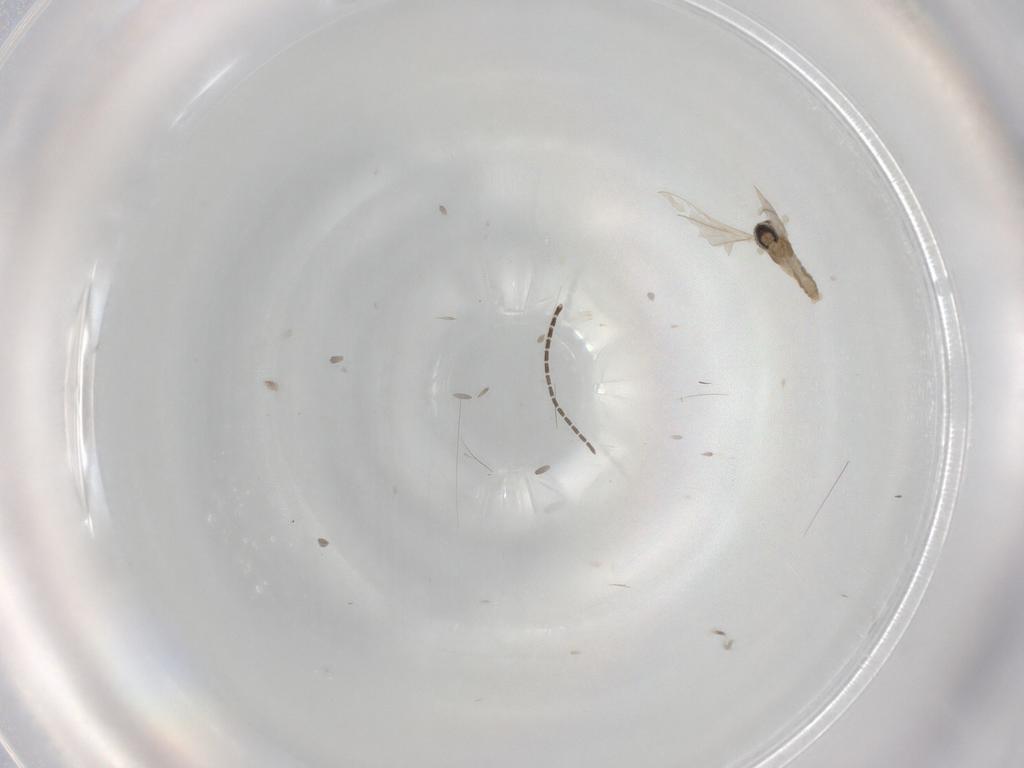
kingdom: Animalia
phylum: Arthropoda
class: Insecta
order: Diptera
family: Cecidomyiidae
